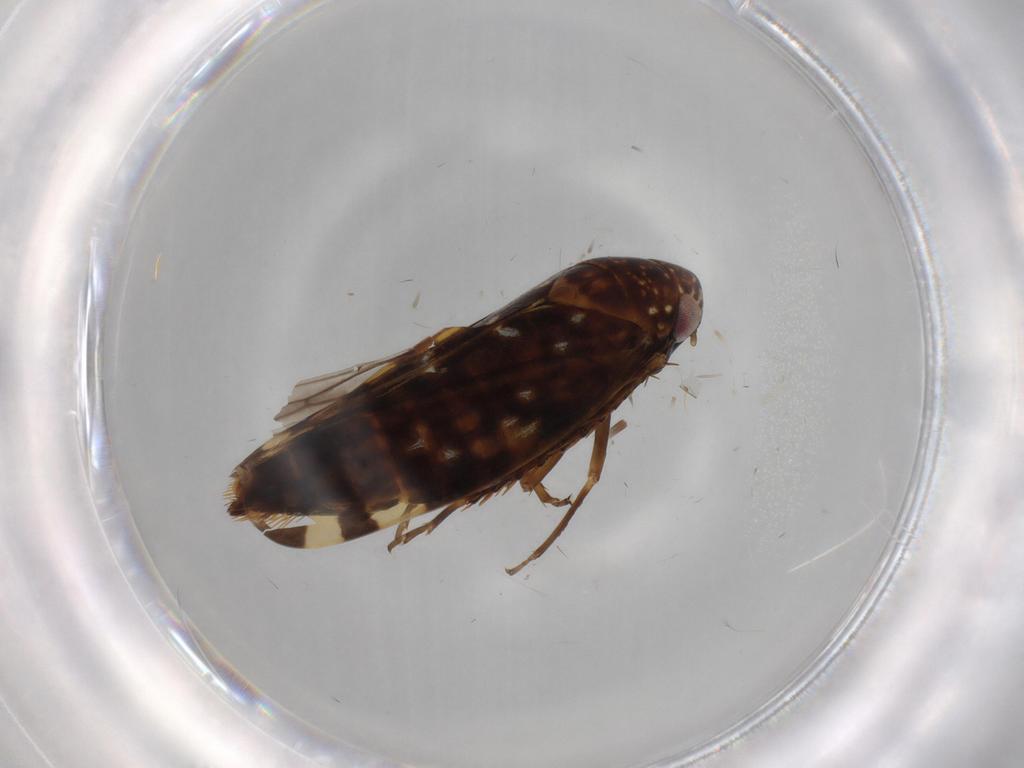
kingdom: Animalia
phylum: Arthropoda
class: Insecta
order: Hemiptera
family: Cicadellidae
